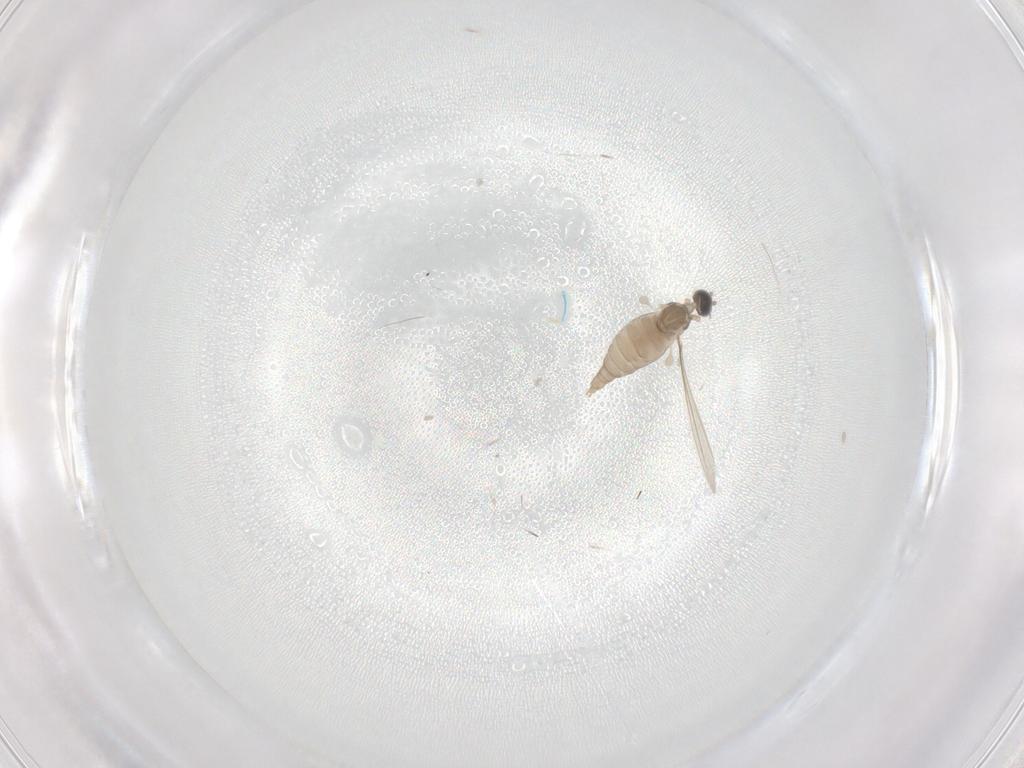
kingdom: Animalia
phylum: Arthropoda
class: Insecta
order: Diptera
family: Cecidomyiidae
